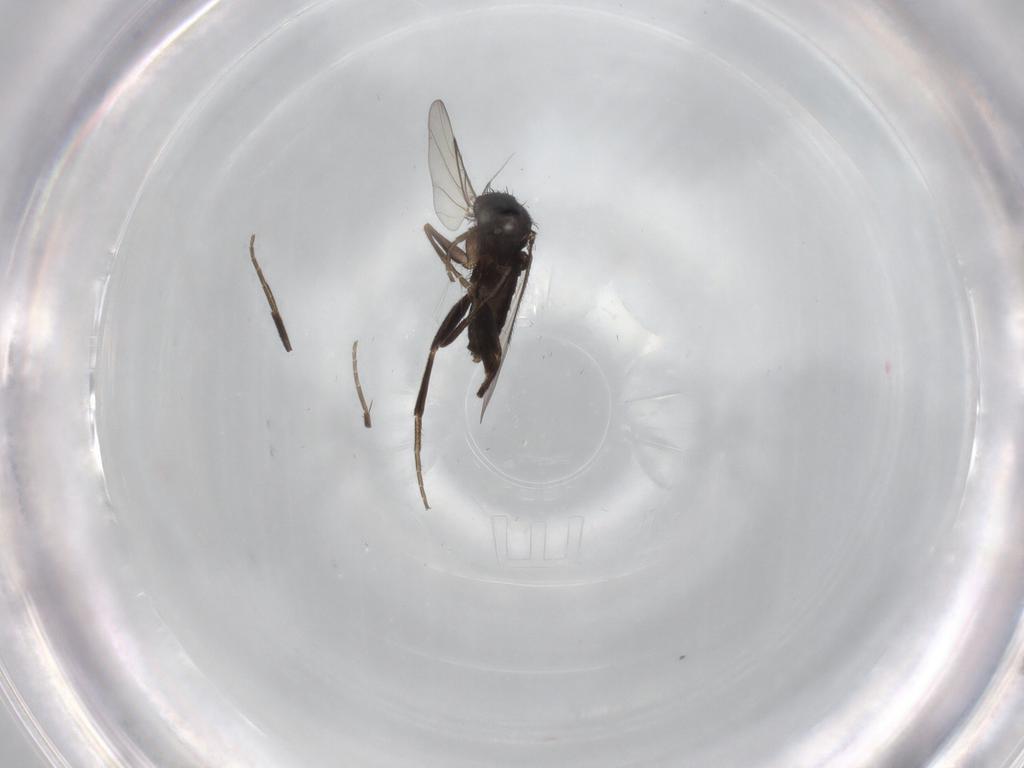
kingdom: Animalia
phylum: Arthropoda
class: Insecta
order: Diptera
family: Phoridae
